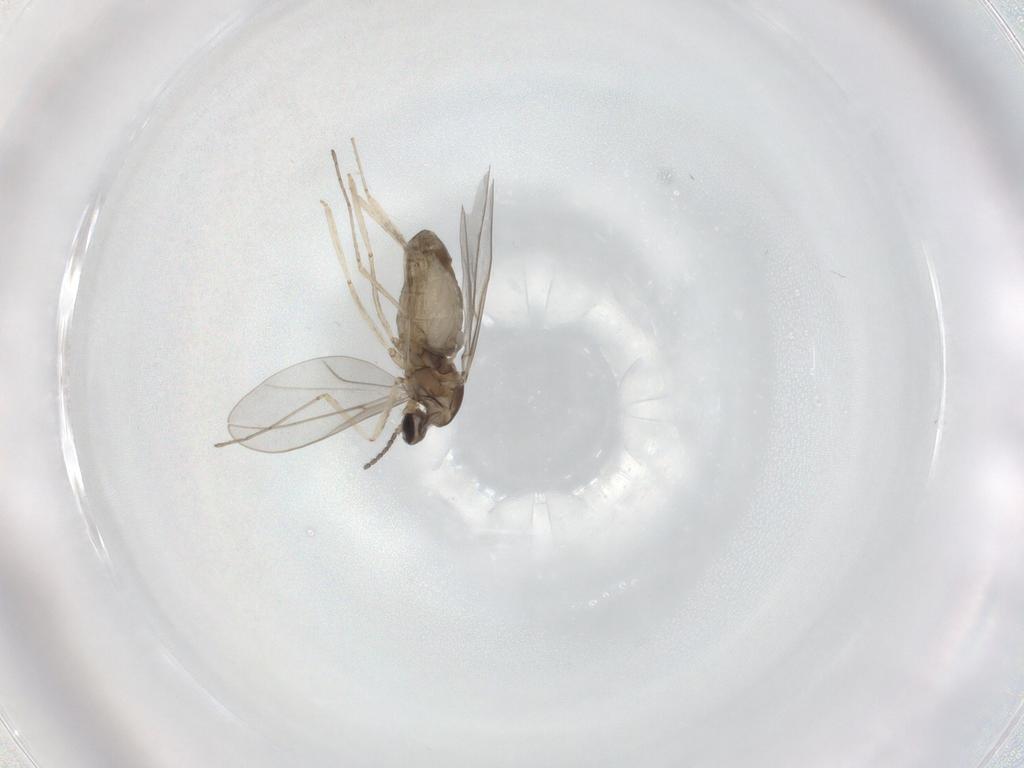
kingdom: Animalia
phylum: Arthropoda
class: Insecta
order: Diptera
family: Cecidomyiidae
